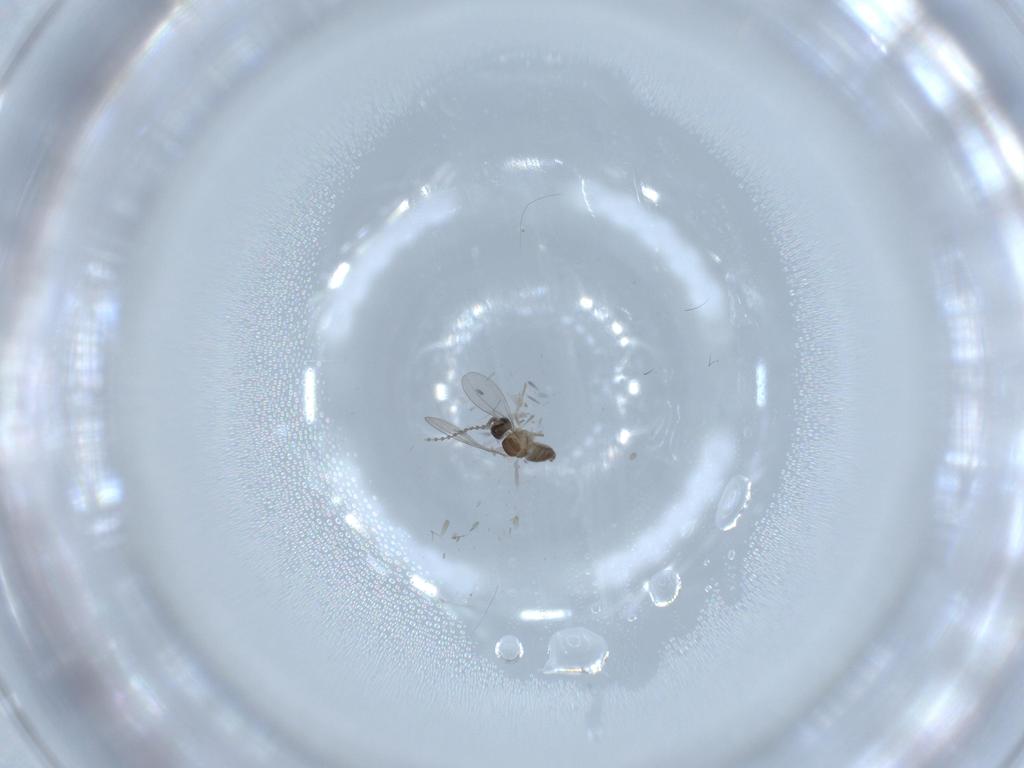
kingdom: Animalia
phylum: Arthropoda
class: Insecta
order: Diptera
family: Cecidomyiidae
